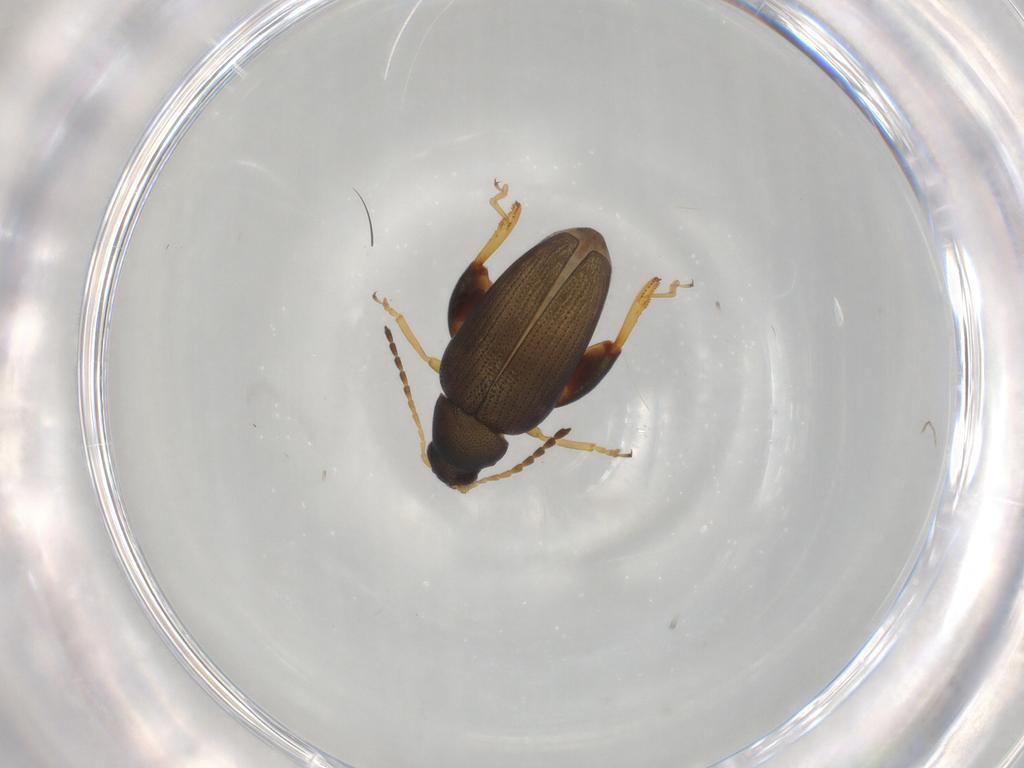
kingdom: Animalia
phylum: Arthropoda
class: Insecta
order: Coleoptera
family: Chrysomelidae
